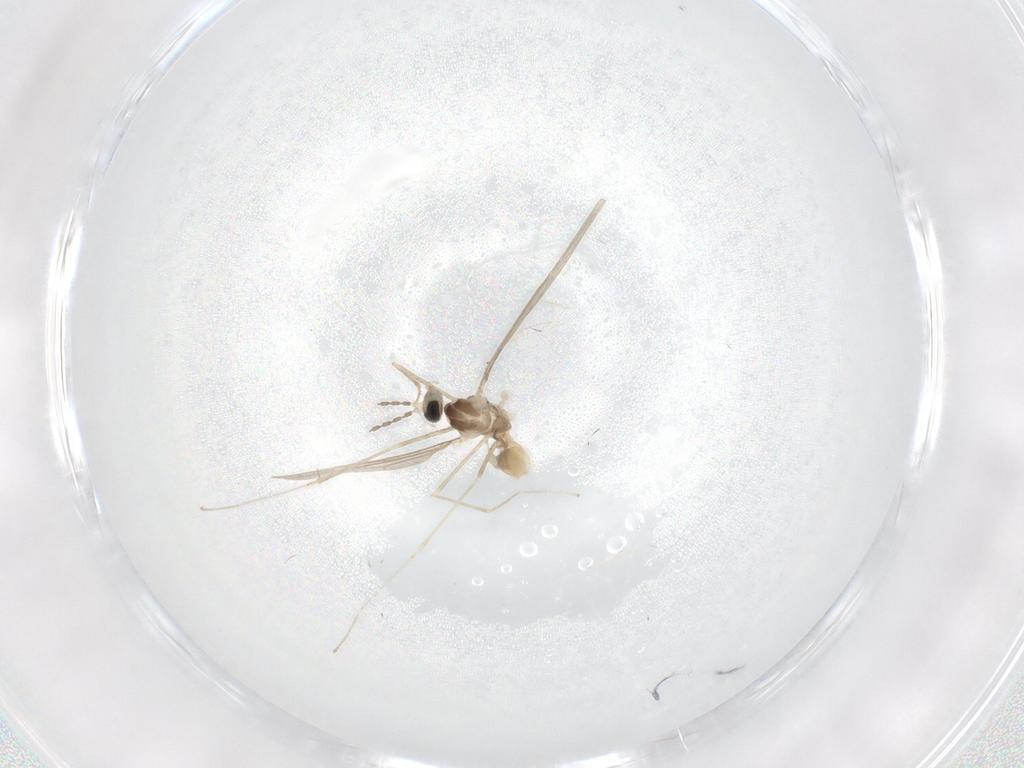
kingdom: Animalia
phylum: Arthropoda
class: Insecta
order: Diptera
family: Cecidomyiidae
